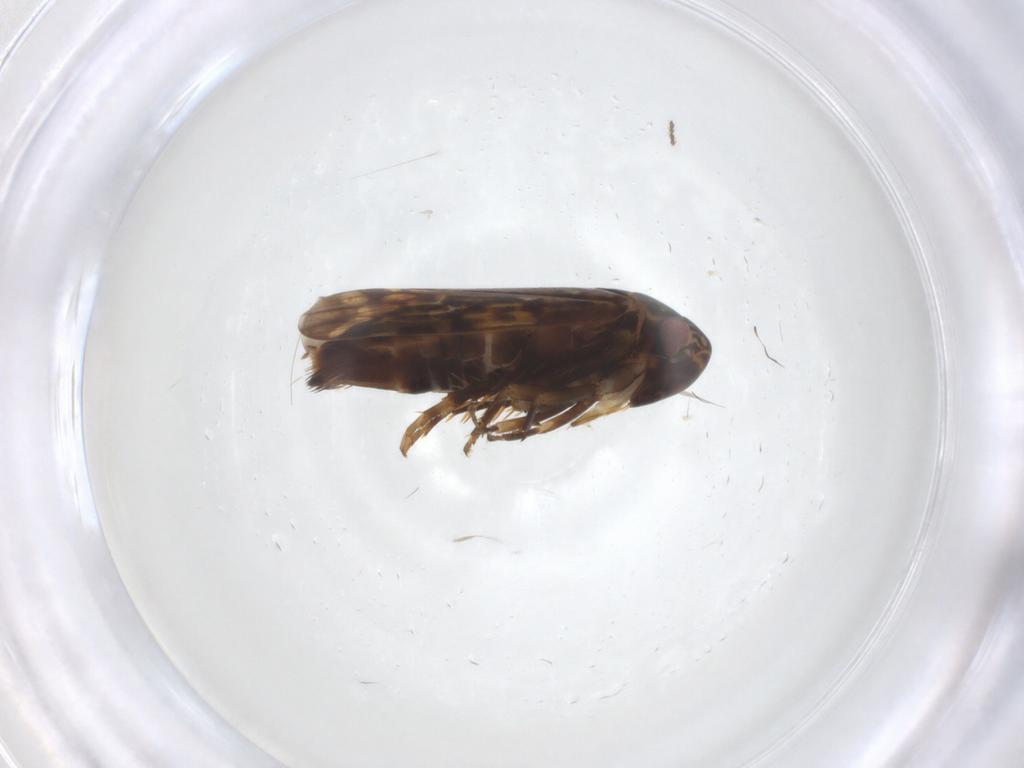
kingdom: Animalia
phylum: Arthropoda
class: Insecta
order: Hemiptera
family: Cicadellidae
